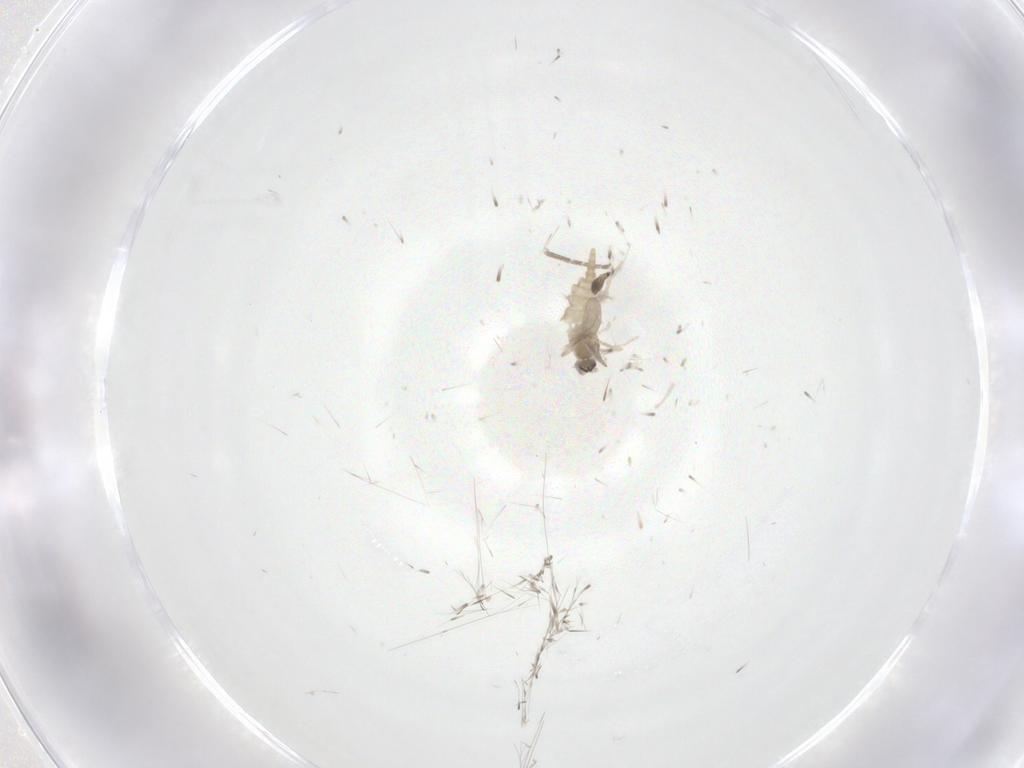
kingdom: Animalia
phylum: Arthropoda
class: Insecta
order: Diptera
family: Cecidomyiidae
